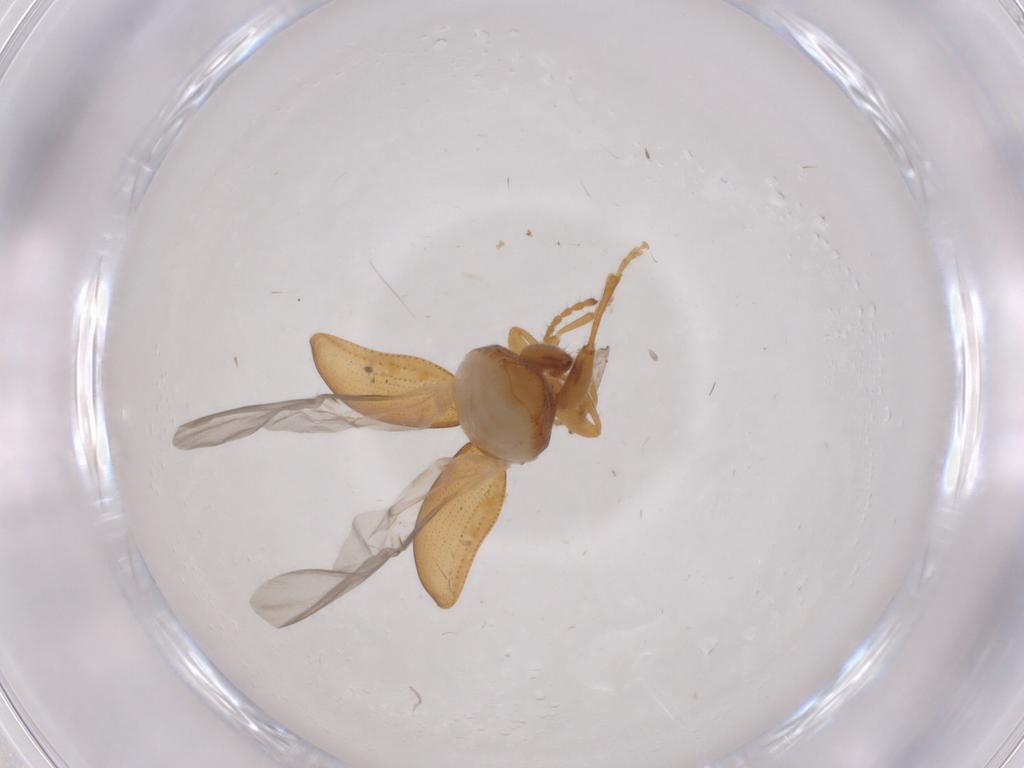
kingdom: Animalia
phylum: Arthropoda
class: Insecta
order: Coleoptera
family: Chrysomelidae
